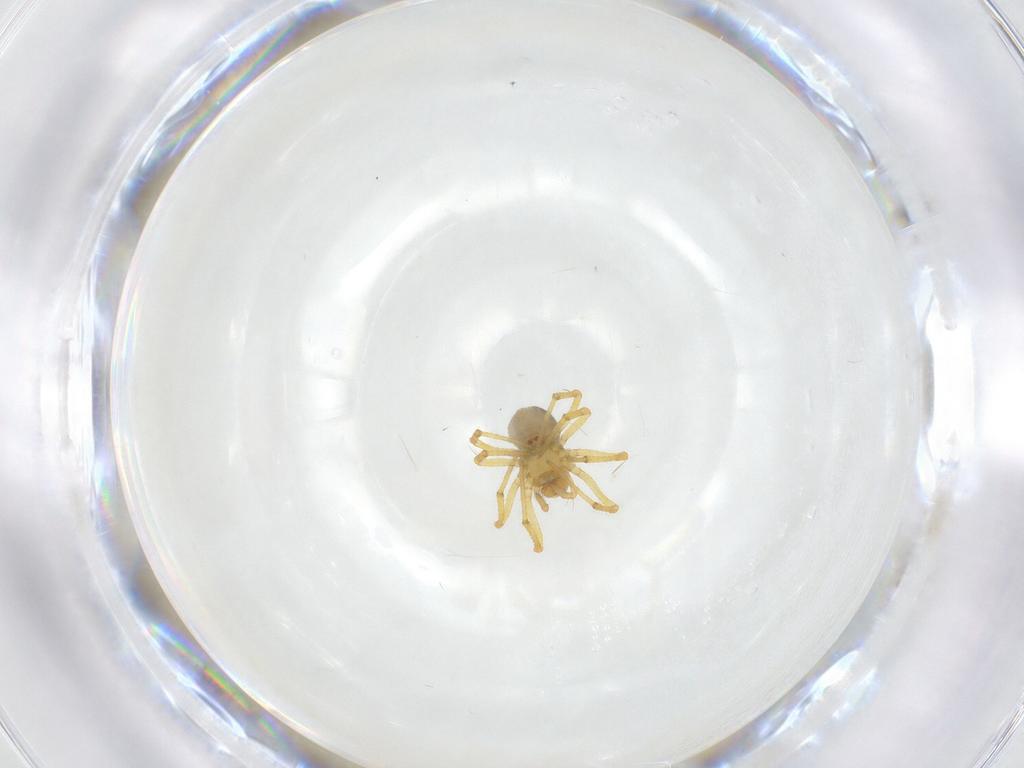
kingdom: Animalia
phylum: Arthropoda
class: Arachnida
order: Araneae
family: Theridiidae
